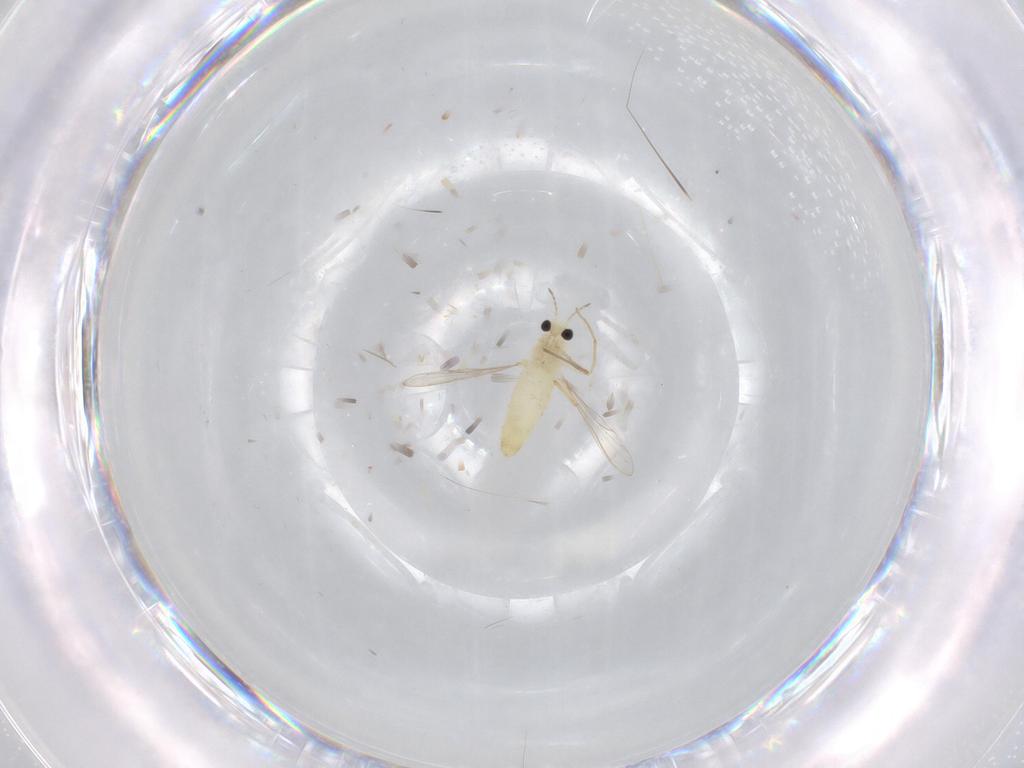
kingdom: Animalia
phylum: Arthropoda
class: Insecta
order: Diptera
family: Chironomidae
